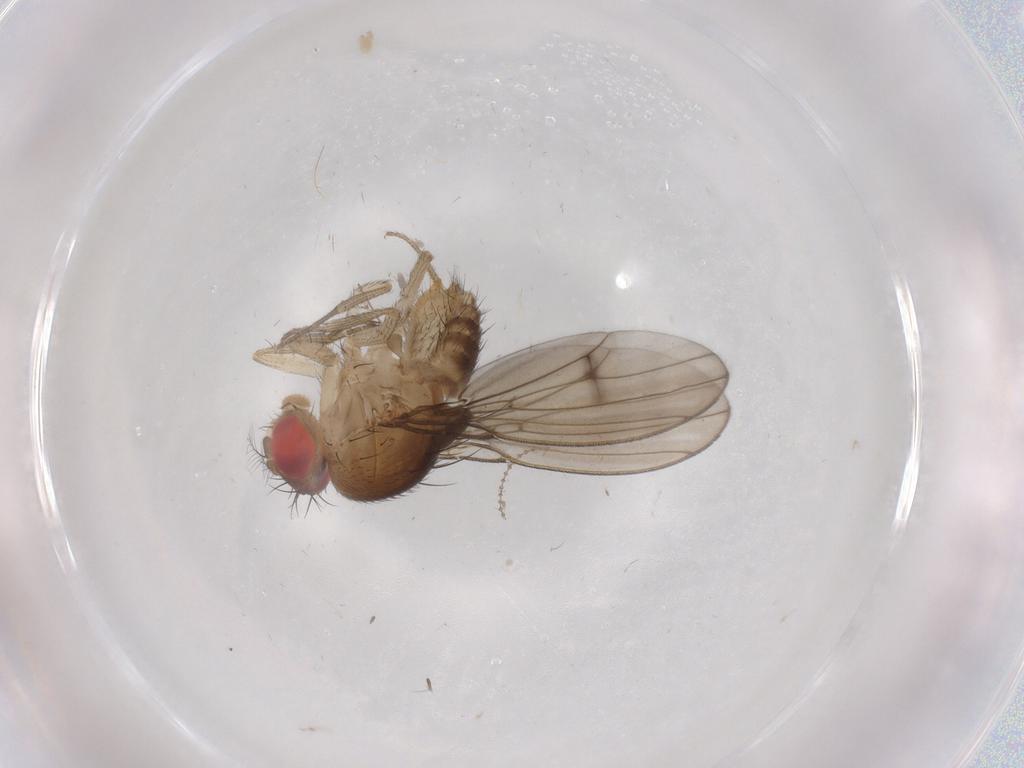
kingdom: Animalia
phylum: Arthropoda
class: Insecta
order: Diptera
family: Drosophilidae
